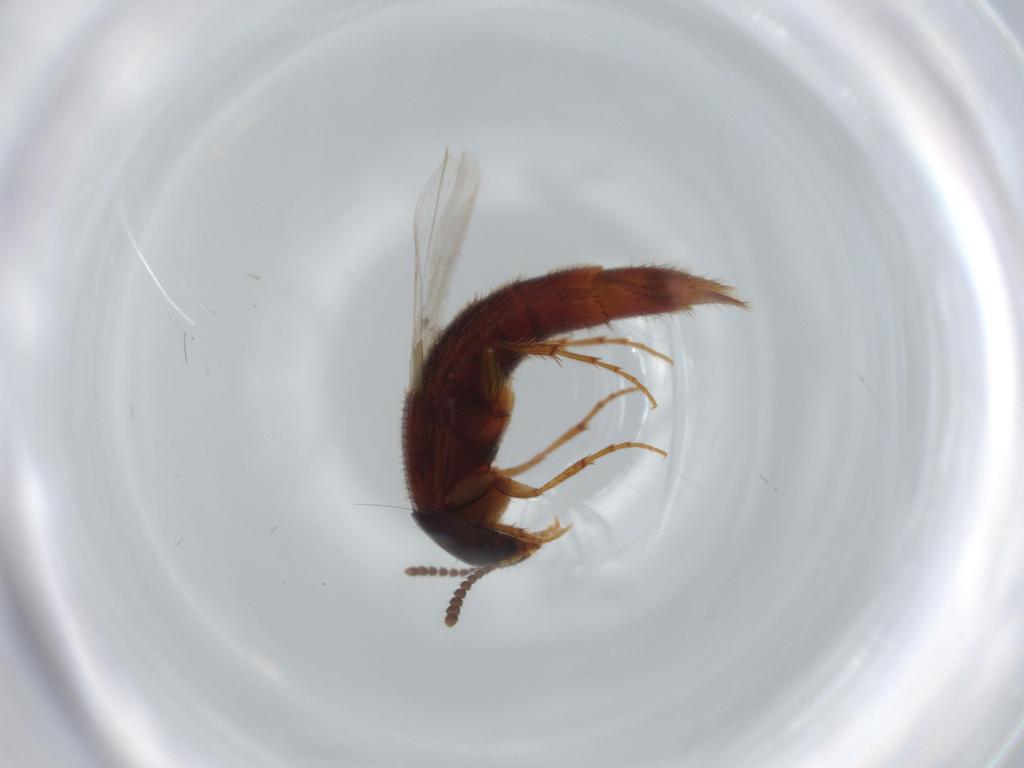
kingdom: Animalia
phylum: Arthropoda
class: Insecta
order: Coleoptera
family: Staphylinidae
